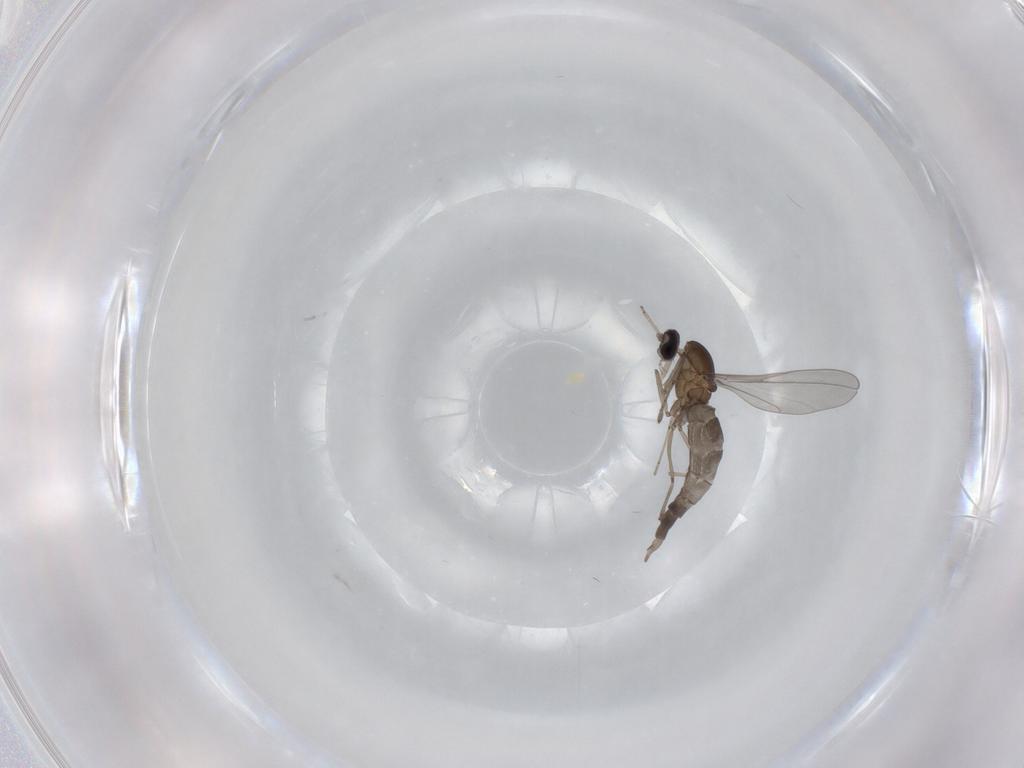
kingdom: Animalia
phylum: Arthropoda
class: Insecta
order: Diptera
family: Cecidomyiidae
